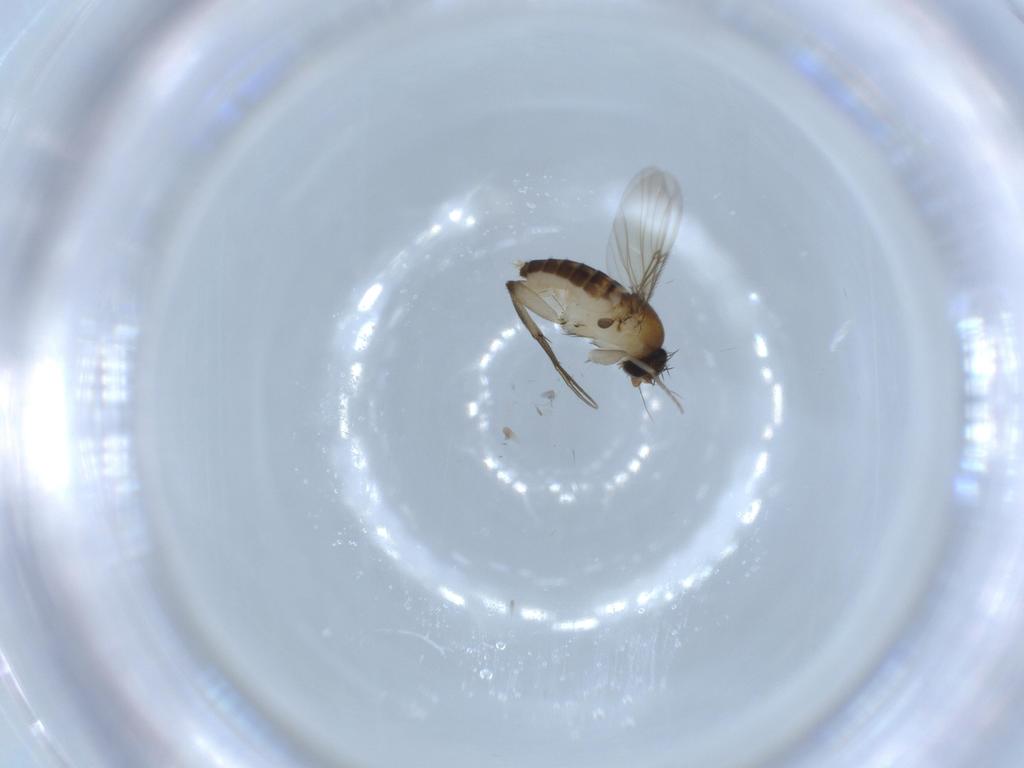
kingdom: Animalia
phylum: Arthropoda
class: Insecta
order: Diptera
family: Phoridae
